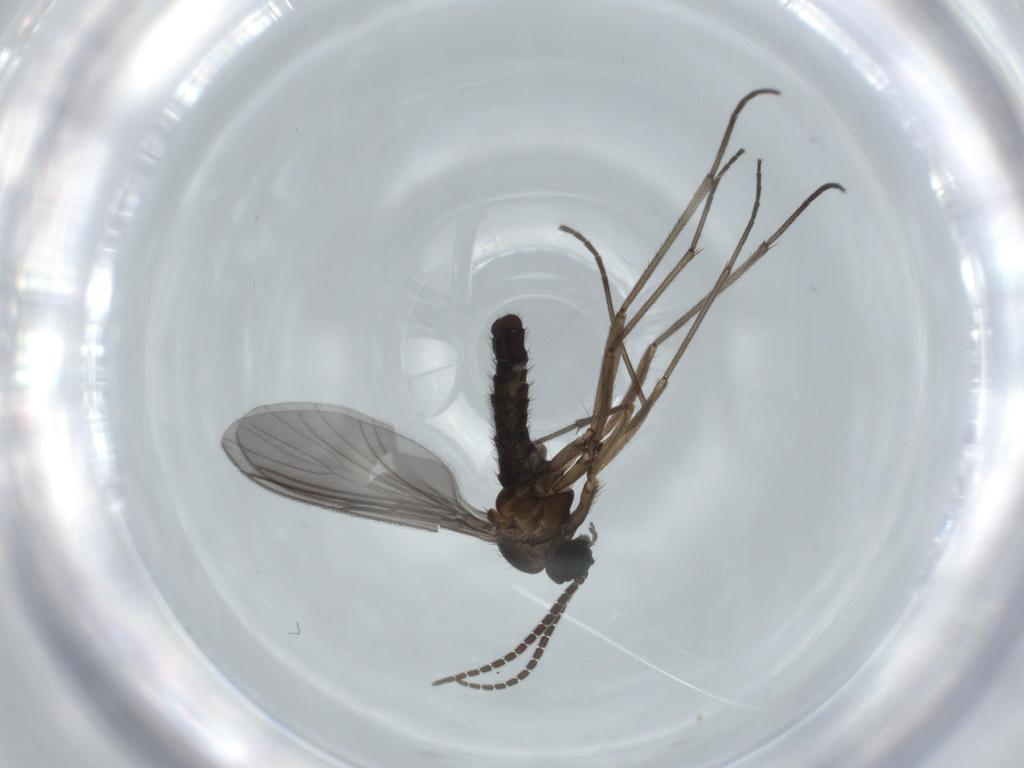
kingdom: Animalia
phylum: Arthropoda
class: Insecta
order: Diptera
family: Sciaridae
